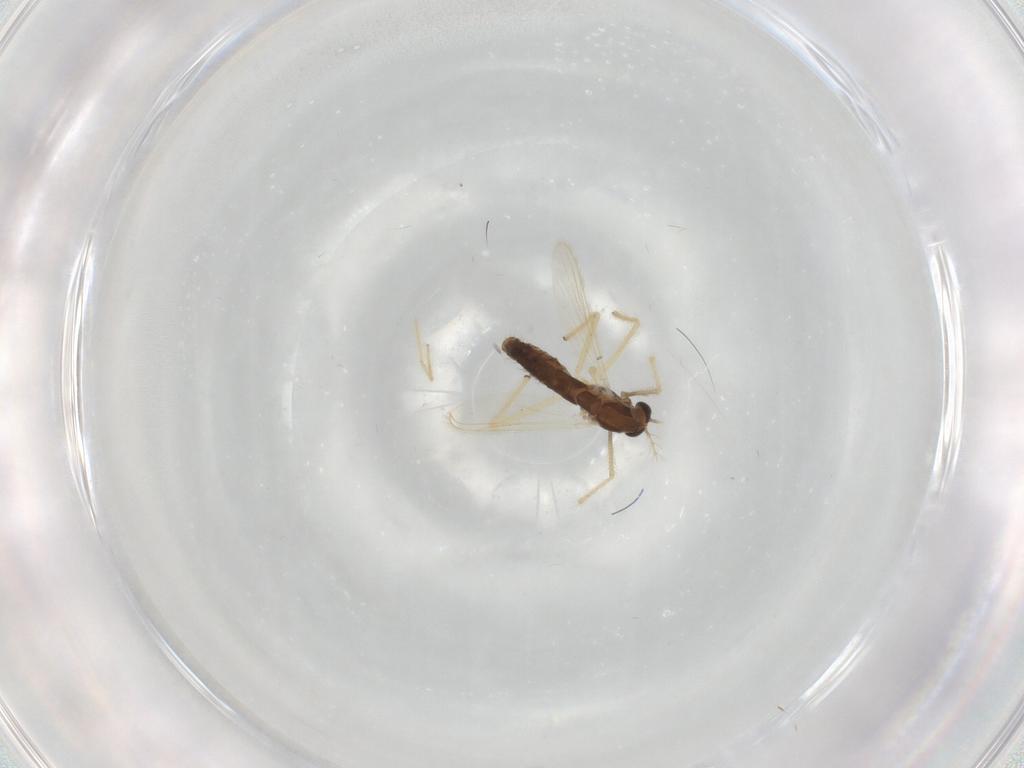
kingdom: Animalia
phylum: Arthropoda
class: Insecta
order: Diptera
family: Chironomidae
